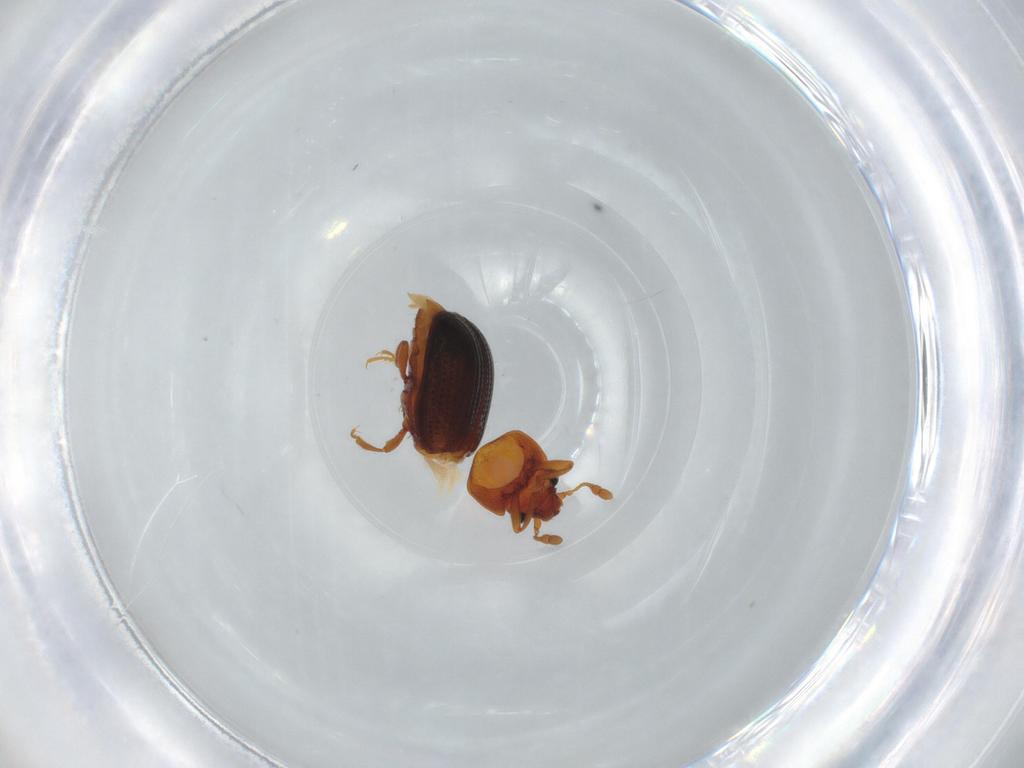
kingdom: Animalia
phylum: Arthropoda
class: Insecta
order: Coleoptera
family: Sphindidae
